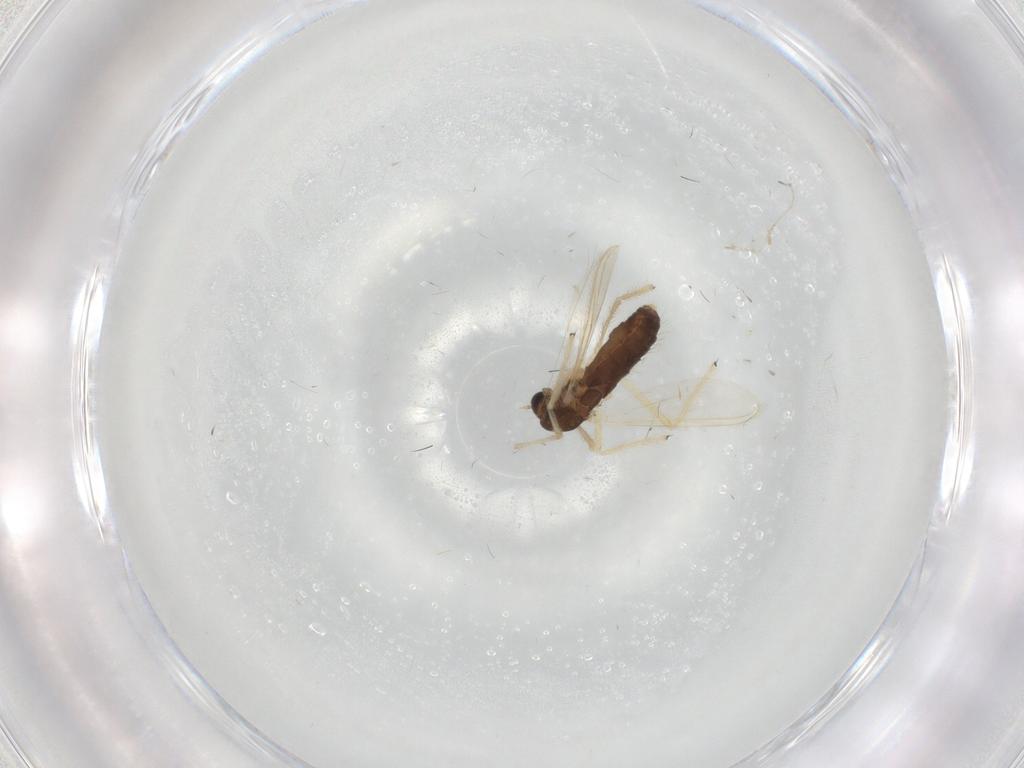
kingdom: Animalia
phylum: Arthropoda
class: Insecta
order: Diptera
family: Chironomidae
